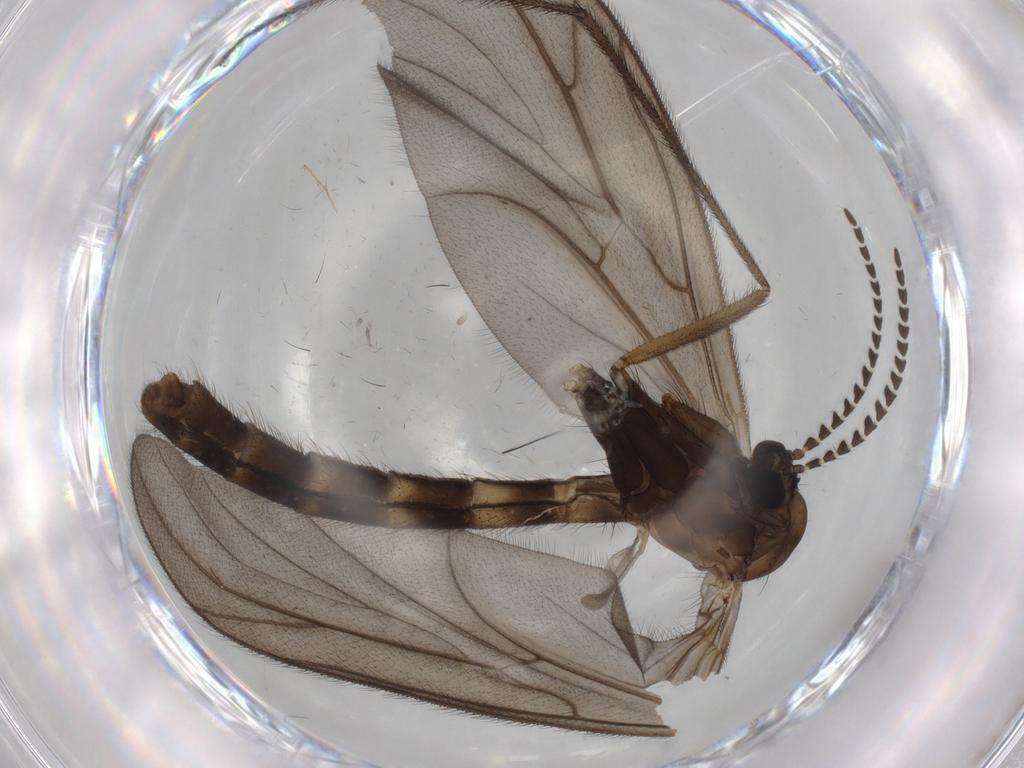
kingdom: Animalia
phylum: Arthropoda
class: Insecta
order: Diptera
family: Ditomyiidae
